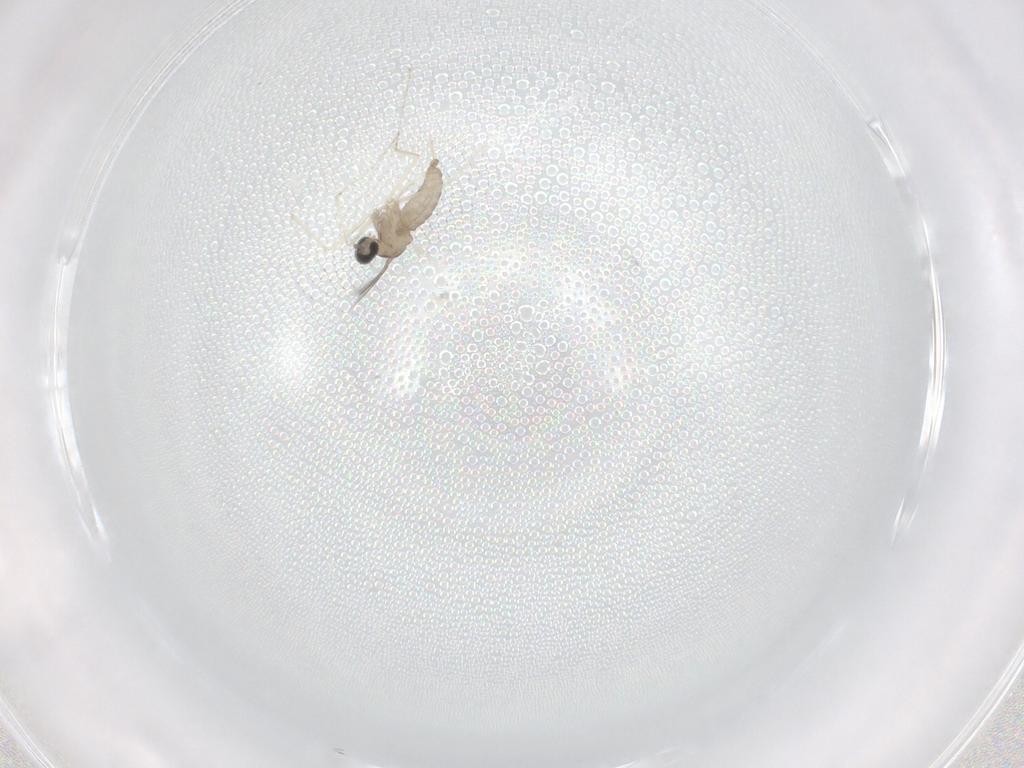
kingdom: Animalia
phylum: Arthropoda
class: Insecta
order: Diptera
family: Cecidomyiidae
